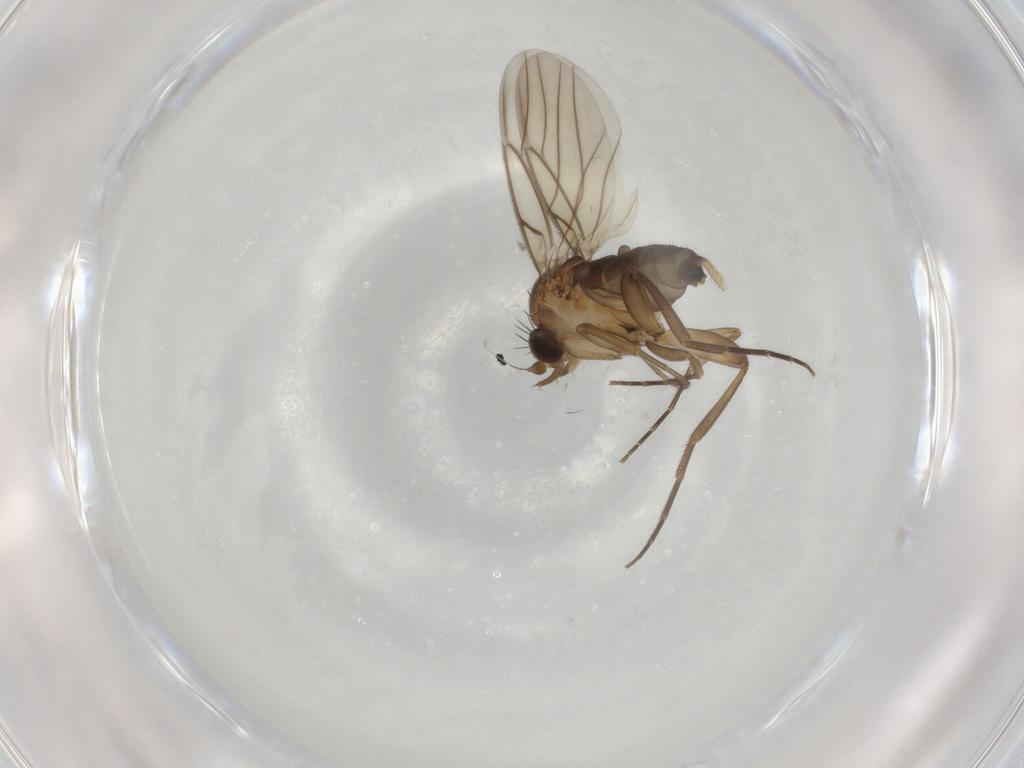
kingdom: Animalia
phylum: Arthropoda
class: Insecta
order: Diptera
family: Phoridae
